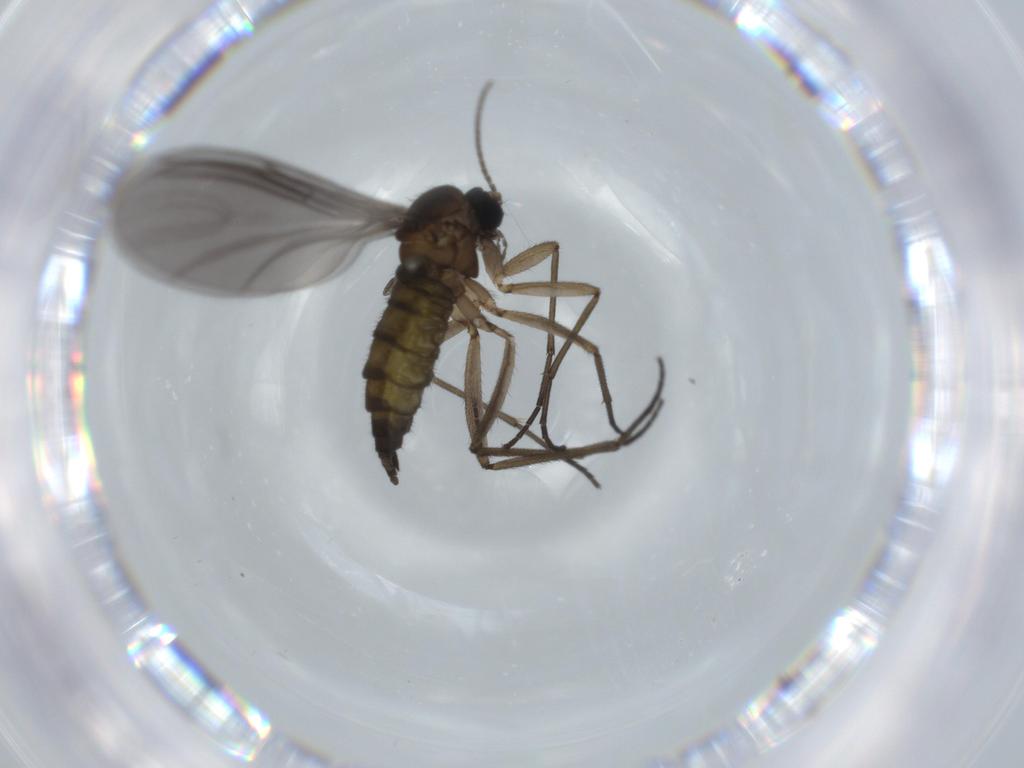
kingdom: Animalia
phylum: Arthropoda
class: Insecta
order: Diptera
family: Sciaridae
